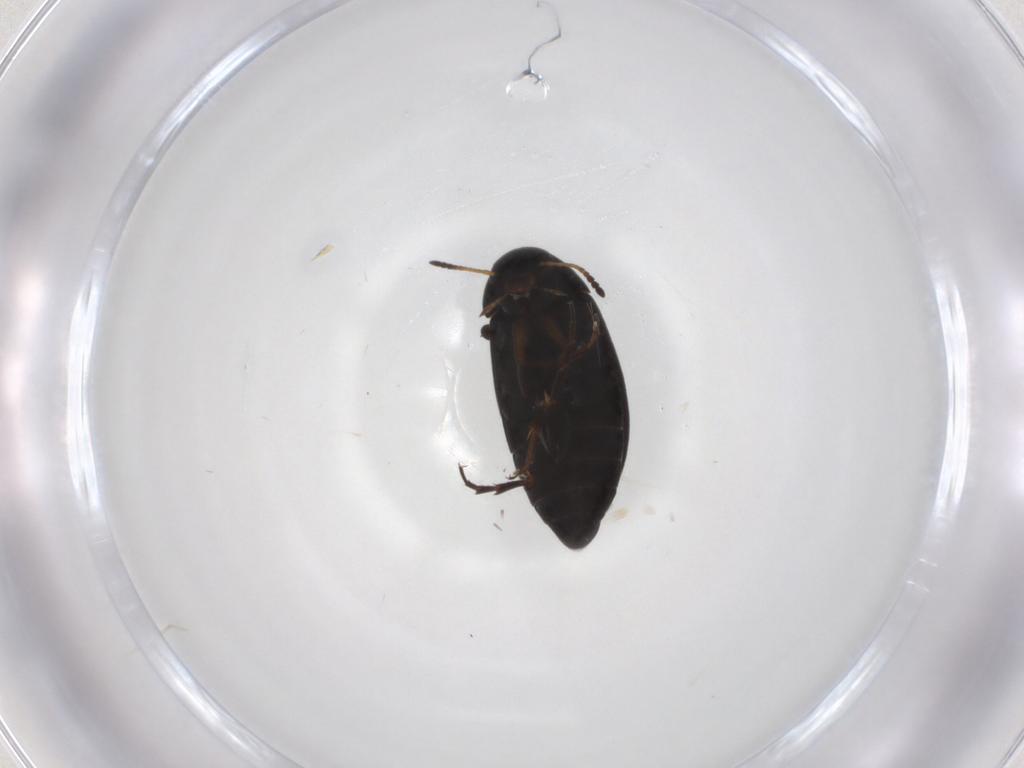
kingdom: Animalia
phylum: Arthropoda
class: Insecta
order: Coleoptera
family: Scraptiidae
